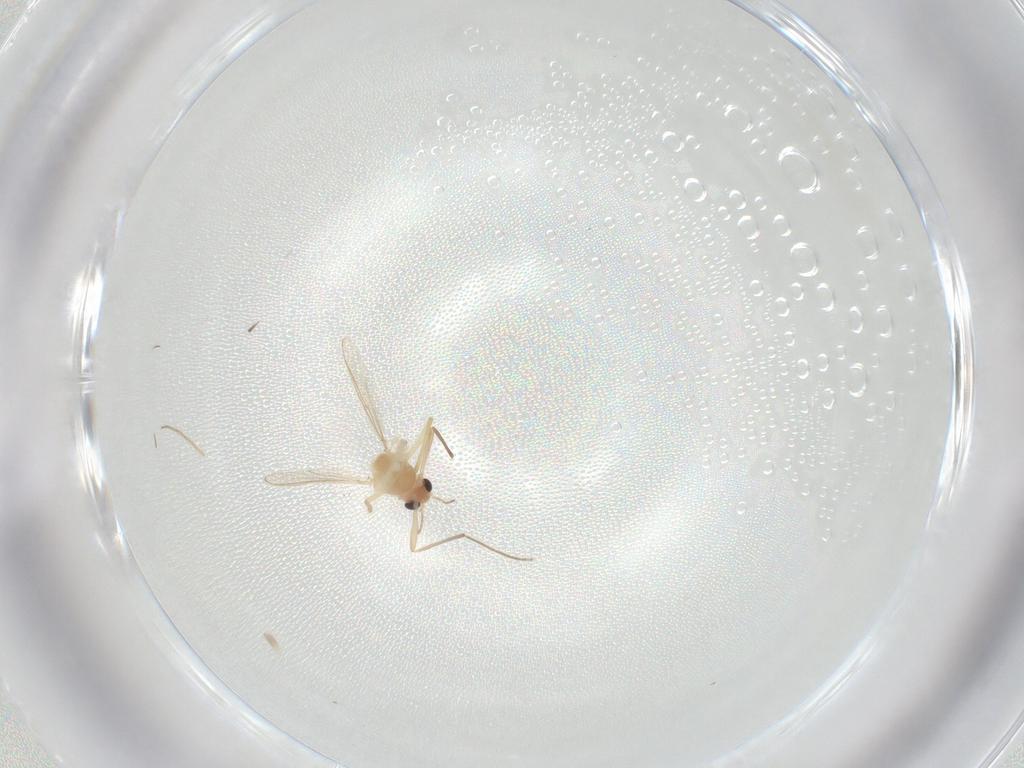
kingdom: Animalia
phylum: Arthropoda
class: Insecta
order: Diptera
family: Chironomidae
